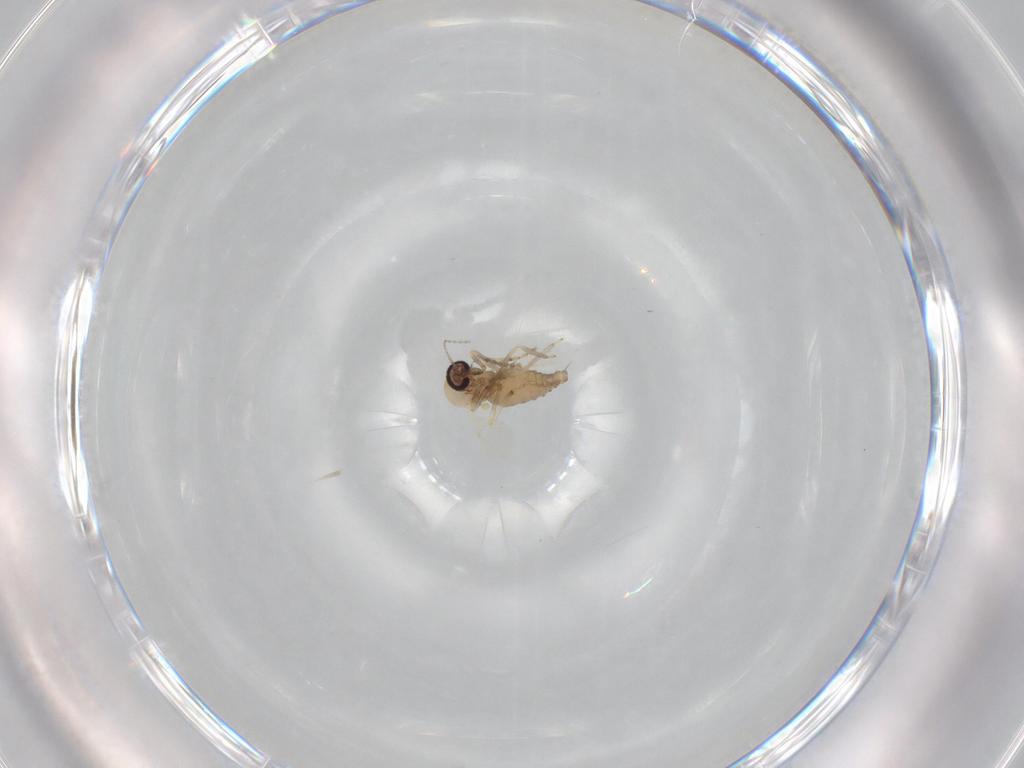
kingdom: Animalia
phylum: Arthropoda
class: Insecta
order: Diptera
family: Ceratopogonidae
